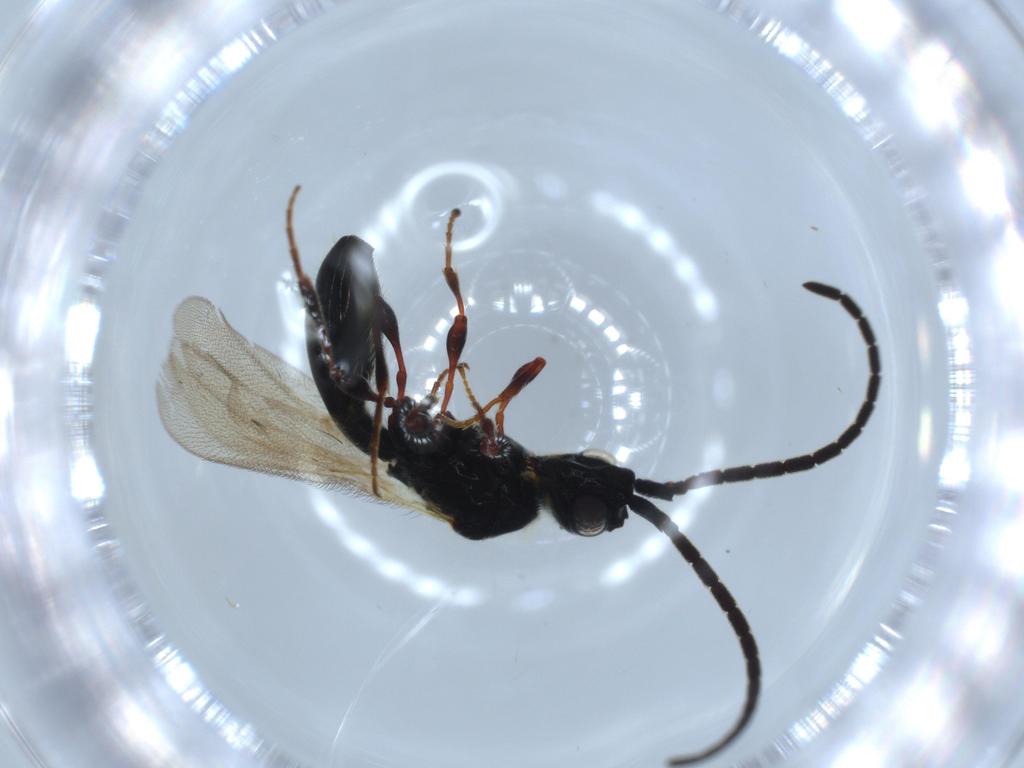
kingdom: Animalia
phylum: Arthropoda
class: Insecta
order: Hymenoptera
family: Diapriidae
